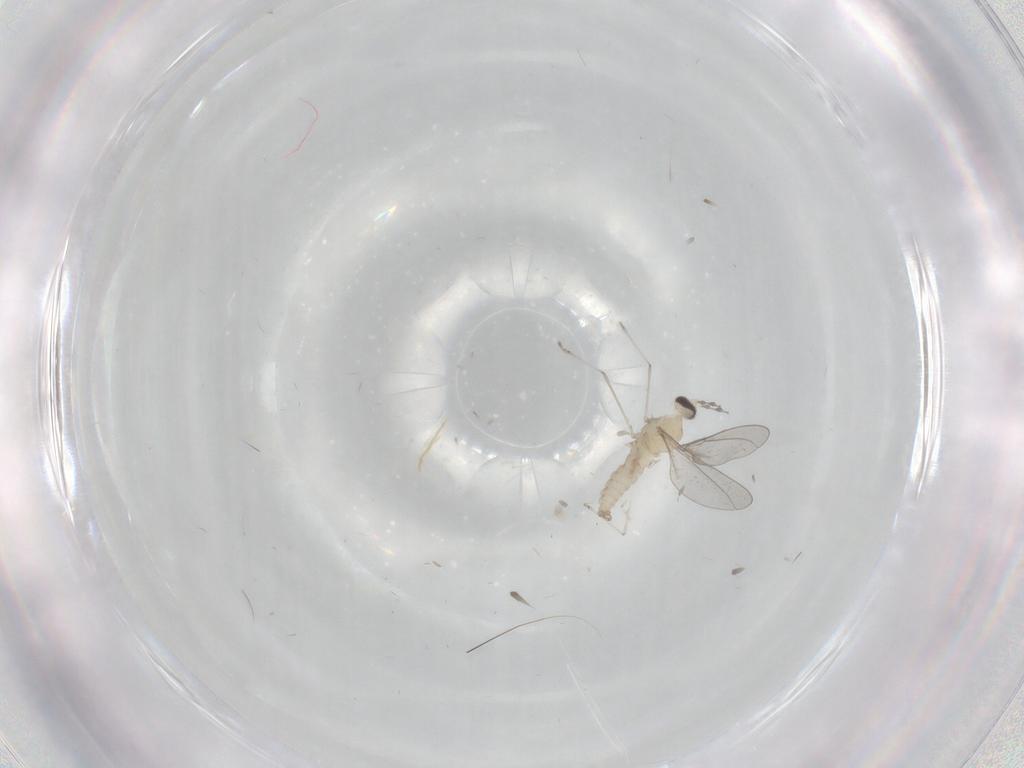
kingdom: Animalia
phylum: Arthropoda
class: Insecta
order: Diptera
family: Cecidomyiidae
